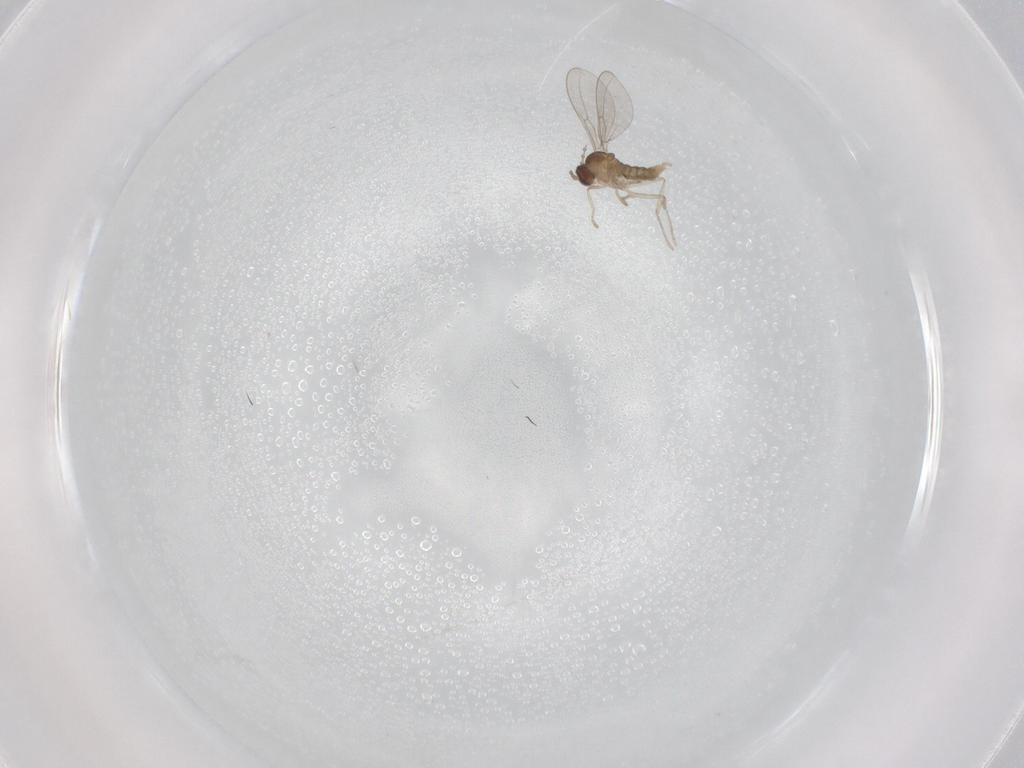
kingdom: Animalia
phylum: Arthropoda
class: Insecta
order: Diptera
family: Cecidomyiidae
